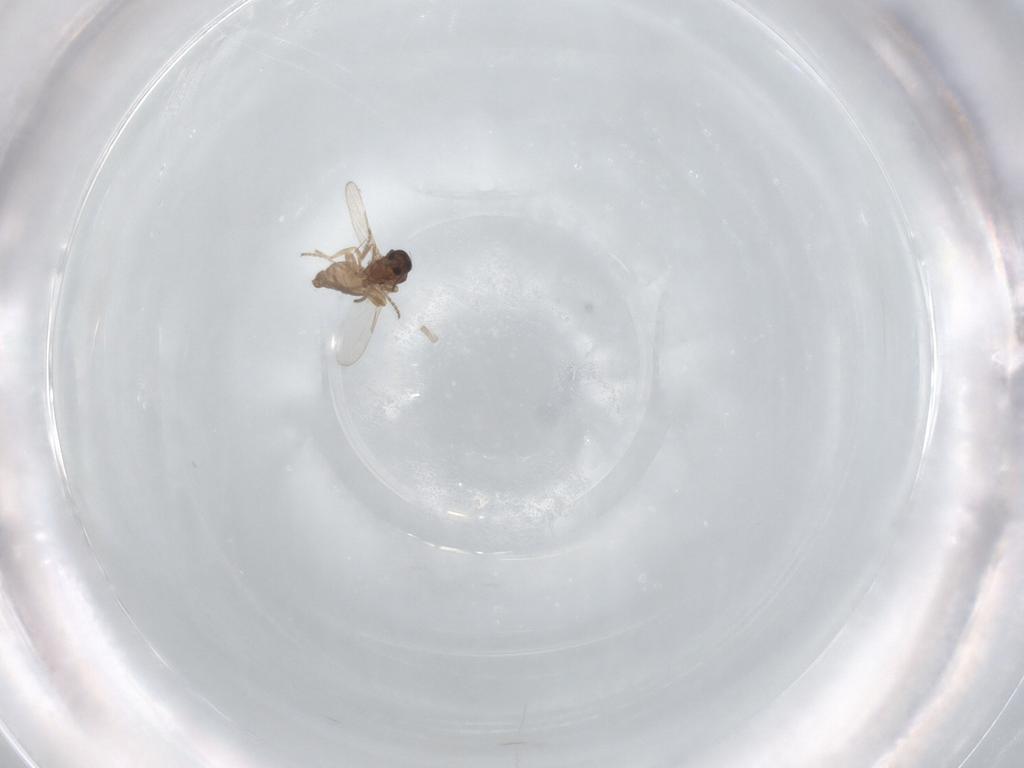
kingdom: Animalia
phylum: Arthropoda
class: Insecta
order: Diptera
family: Ceratopogonidae
